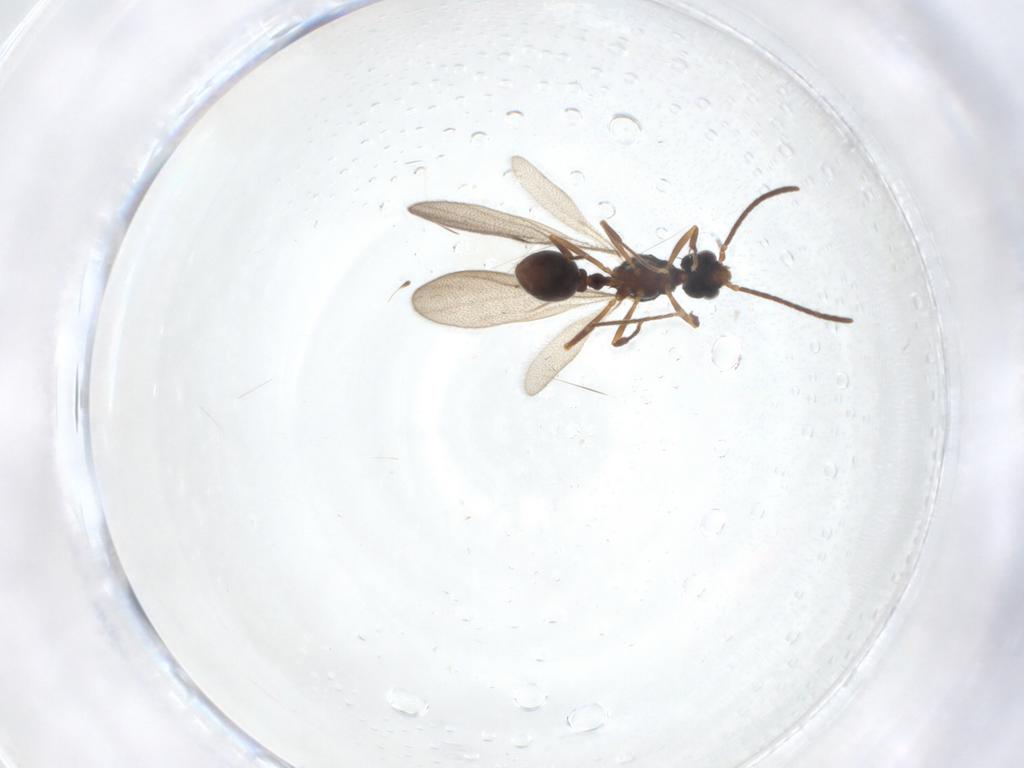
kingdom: Animalia
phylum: Arthropoda
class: Insecta
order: Hymenoptera
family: Formicidae
